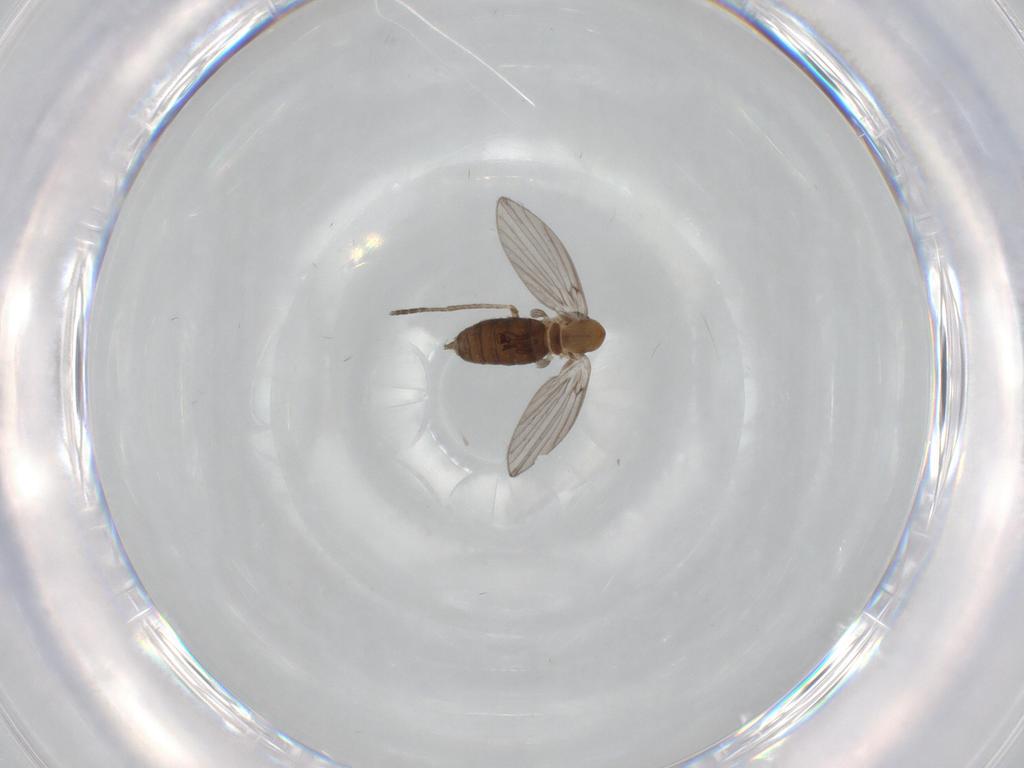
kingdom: Animalia
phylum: Arthropoda
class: Insecta
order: Diptera
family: Psychodidae
